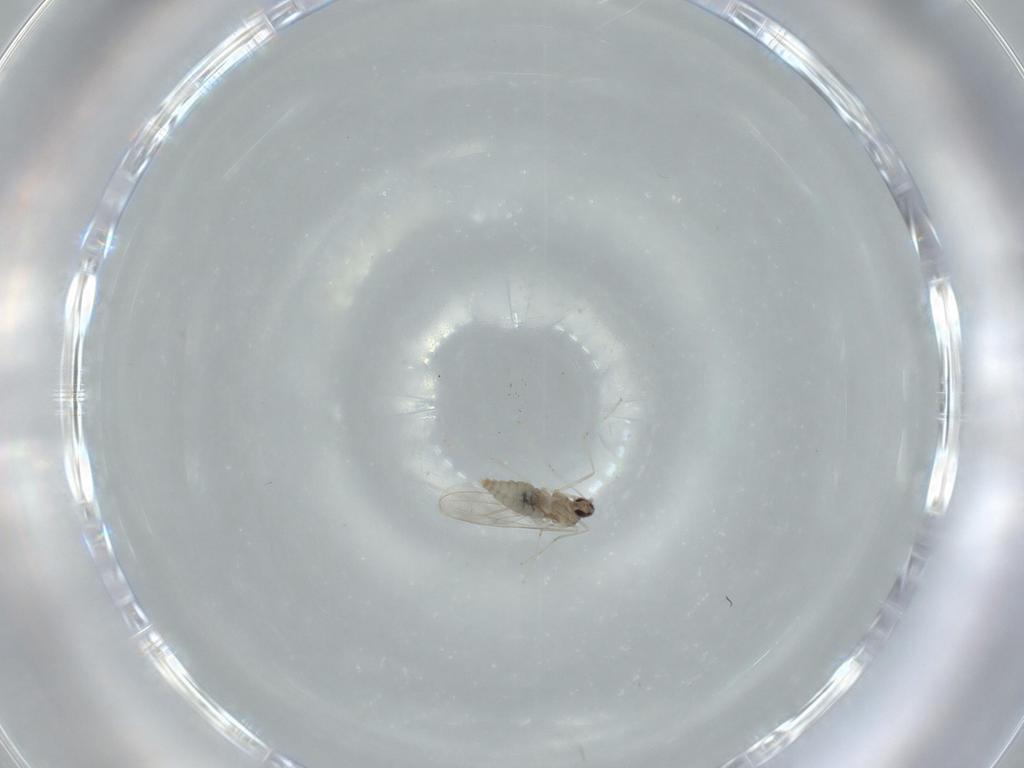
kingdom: Animalia
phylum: Arthropoda
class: Insecta
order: Diptera
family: Cecidomyiidae
